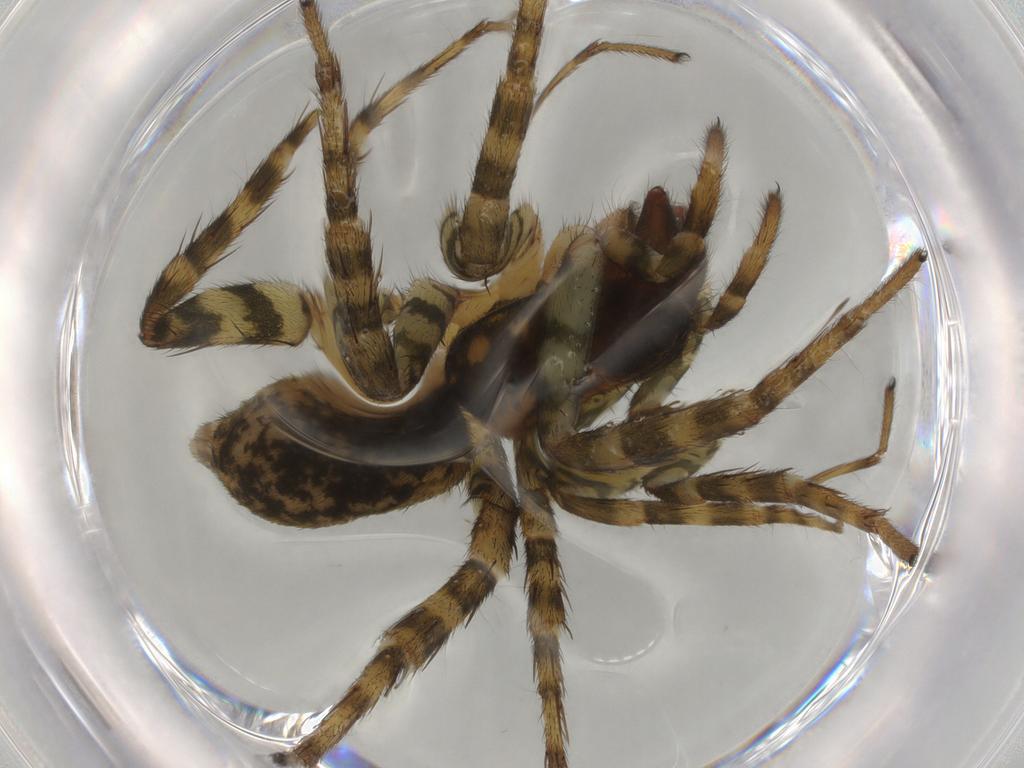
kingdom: Animalia
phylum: Arthropoda
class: Arachnida
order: Araneae
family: Lycosidae
